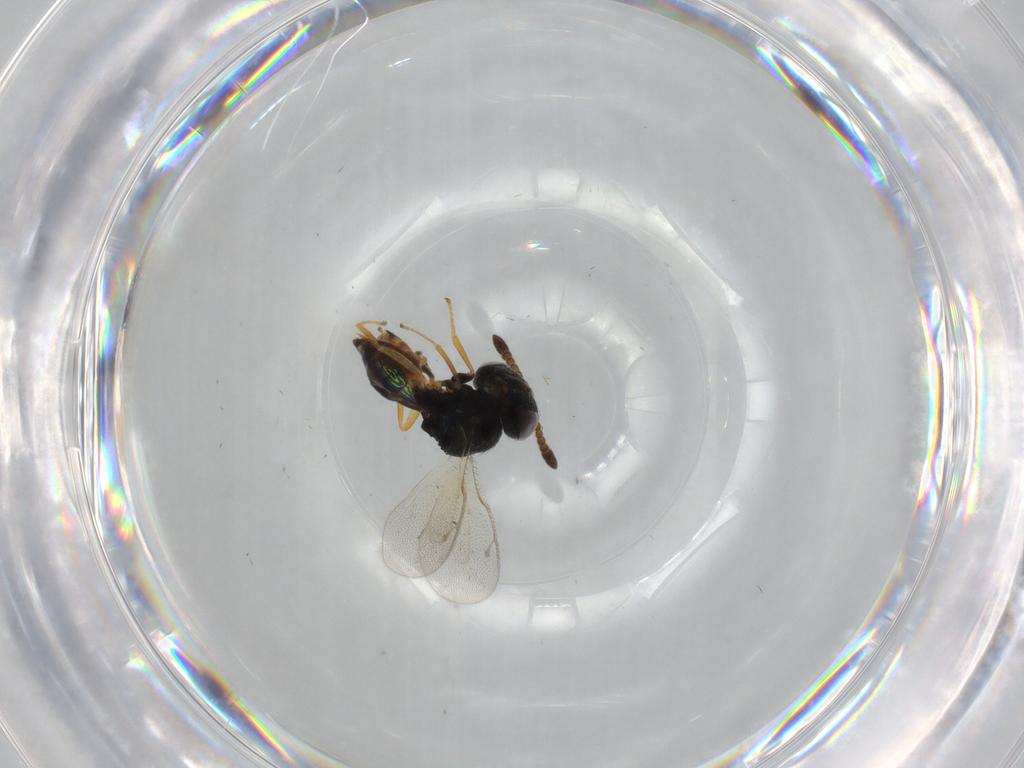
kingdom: Animalia
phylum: Arthropoda
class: Insecta
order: Hymenoptera
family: Pteromalidae
